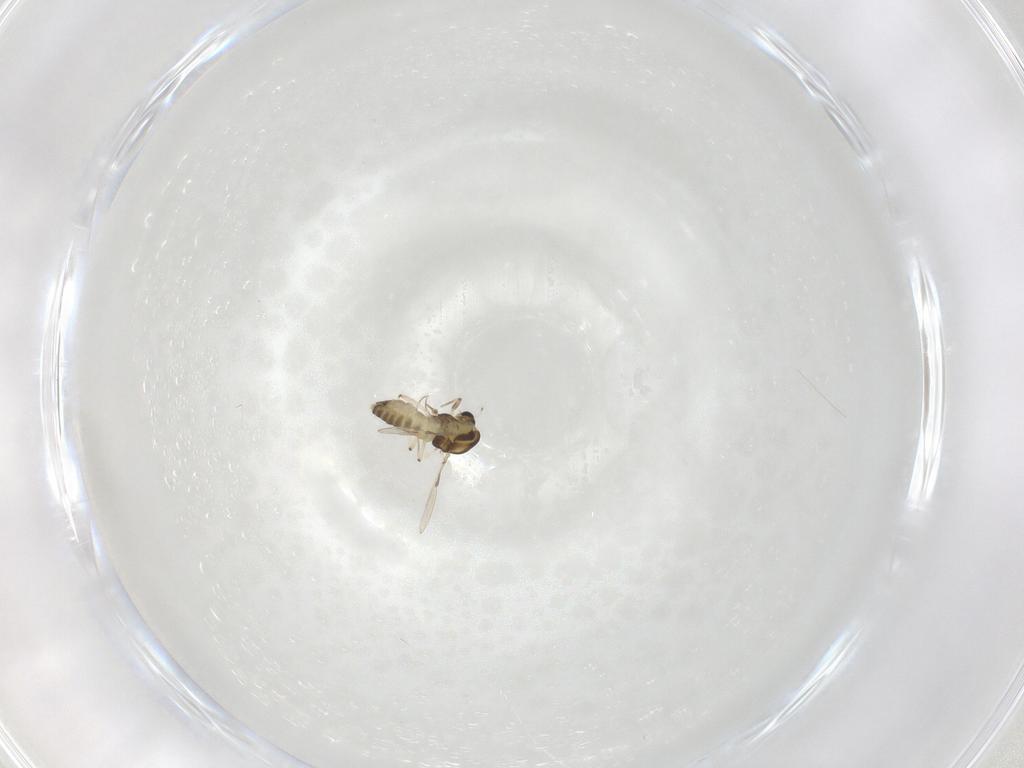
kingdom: Animalia
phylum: Arthropoda
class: Insecta
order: Diptera
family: Chironomidae
